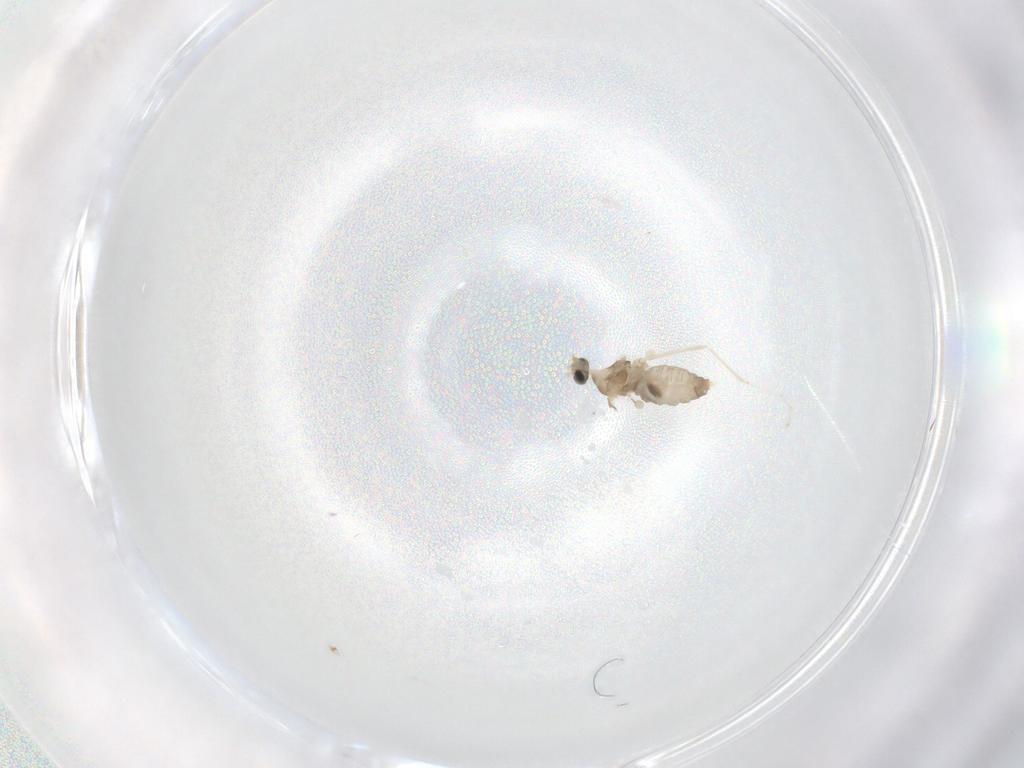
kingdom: Animalia
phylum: Arthropoda
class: Insecta
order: Diptera
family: Cecidomyiidae
